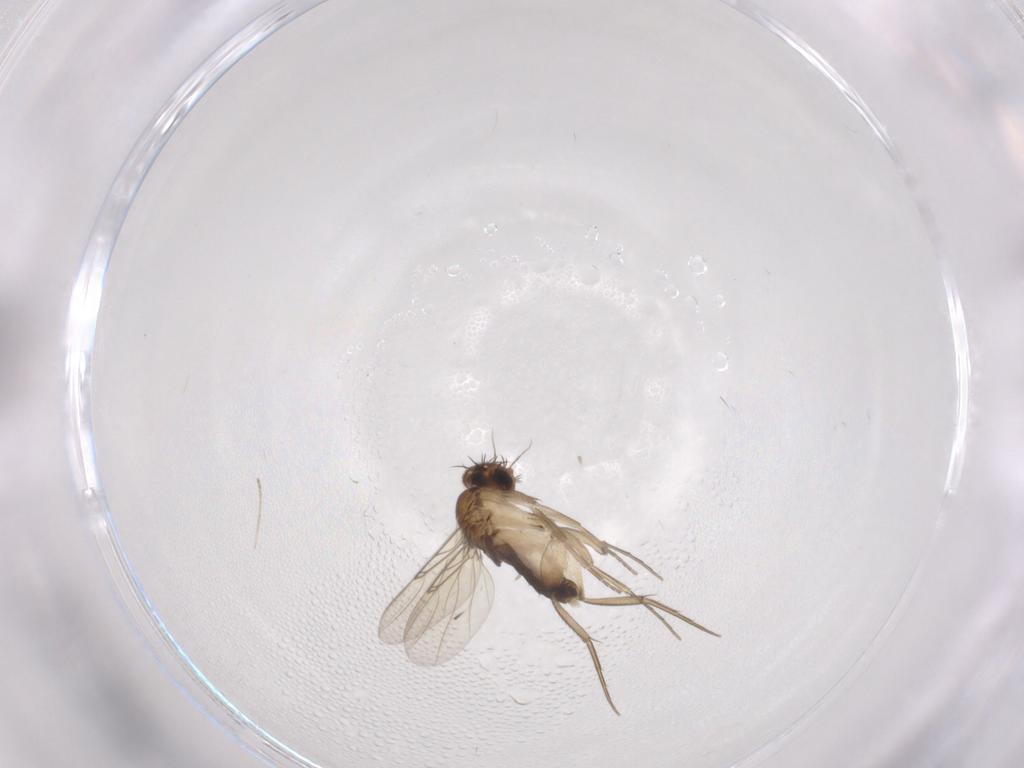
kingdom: Animalia
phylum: Arthropoda
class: Insecta
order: Diptera
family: Phoridae
